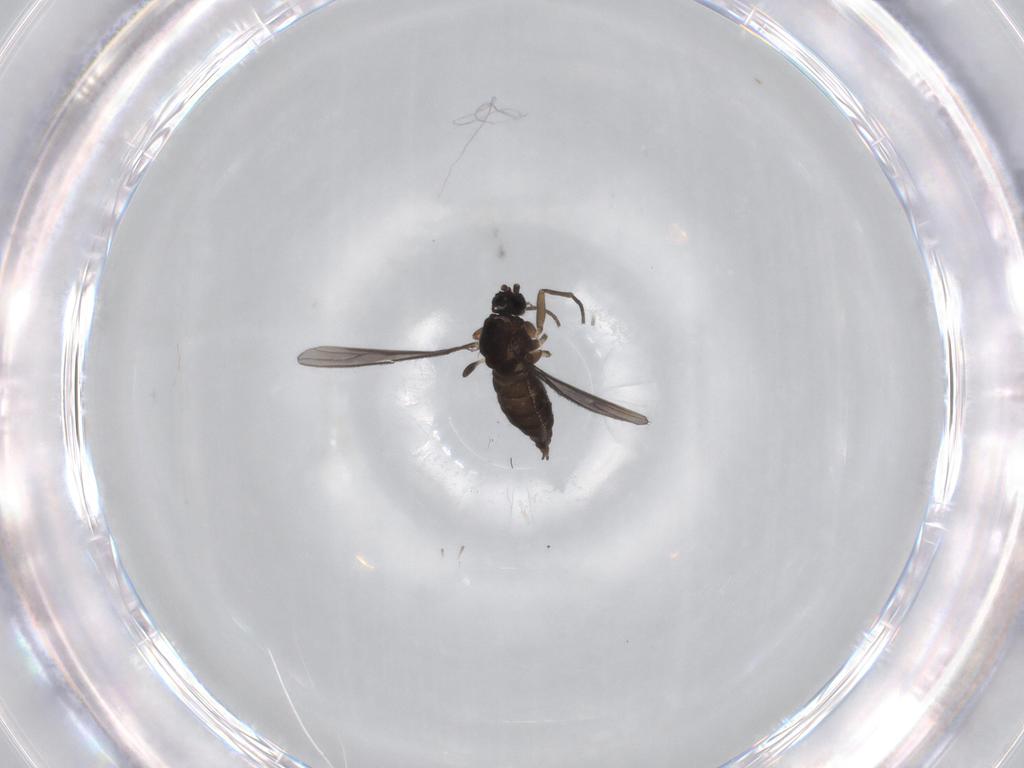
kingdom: Animalia
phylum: Arthropoda
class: Insecta
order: Diptera
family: Sciaridae
